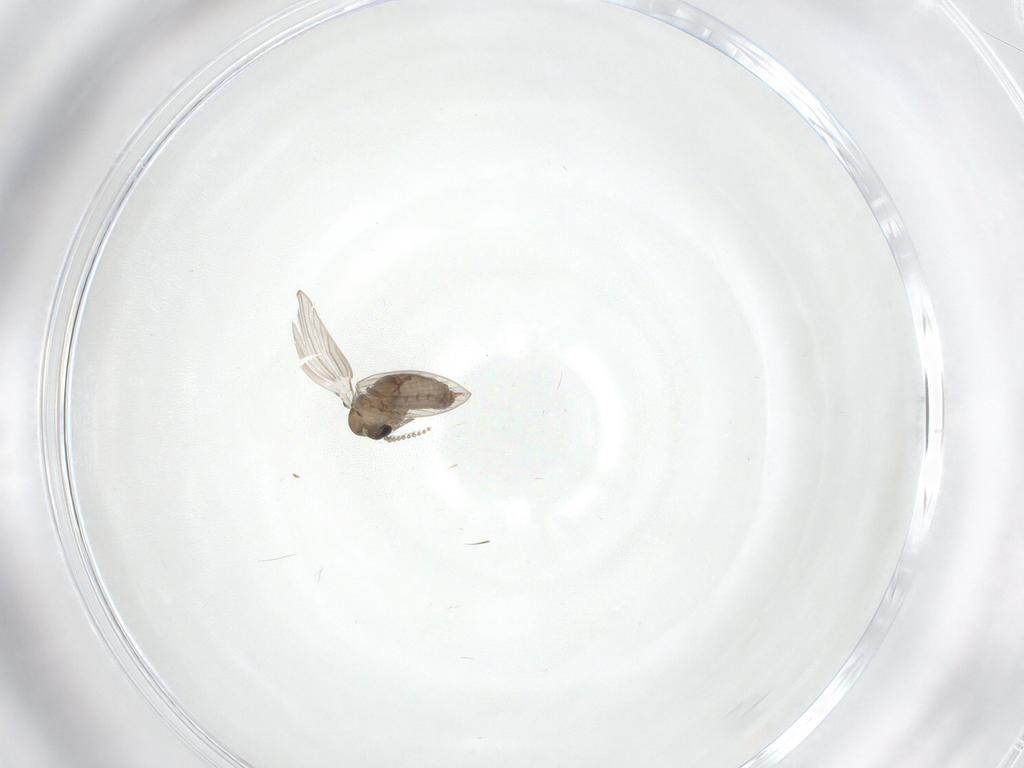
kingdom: Animalia
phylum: Arthropoda
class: Insecta
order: Diptera
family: Psychodidae
